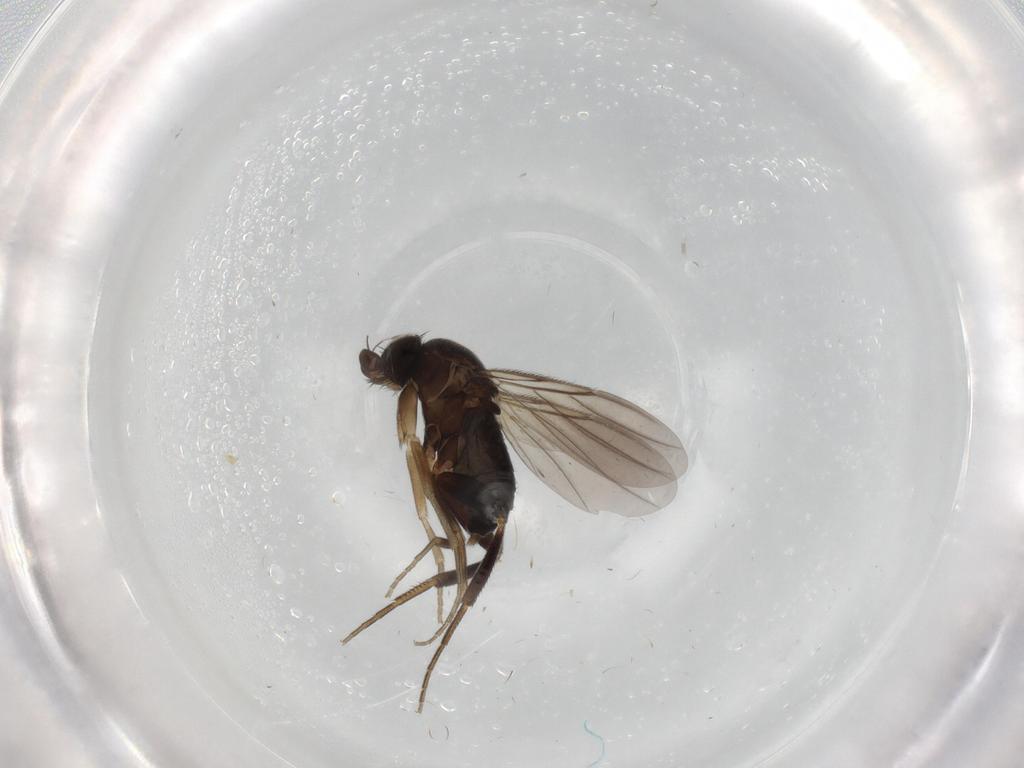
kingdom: Animalia
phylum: Arthropoda
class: Insecta
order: Diptera
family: Phoridae
